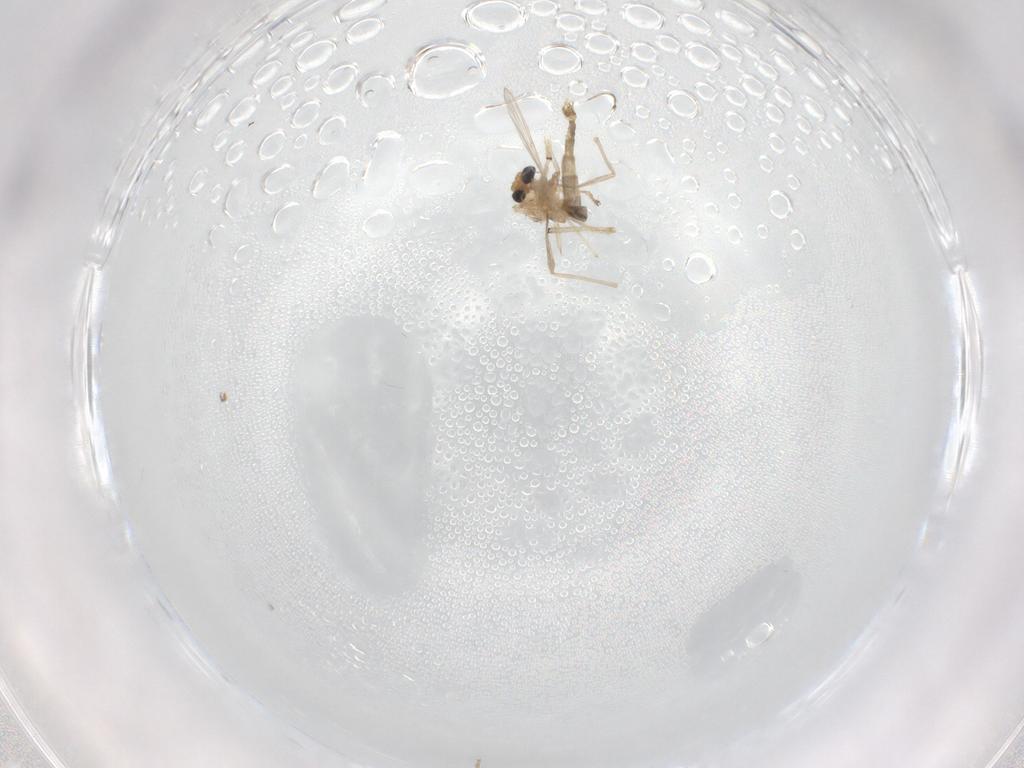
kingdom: Animalia
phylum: Arthropoda
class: Insecta
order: Diptera
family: Chironomidae
